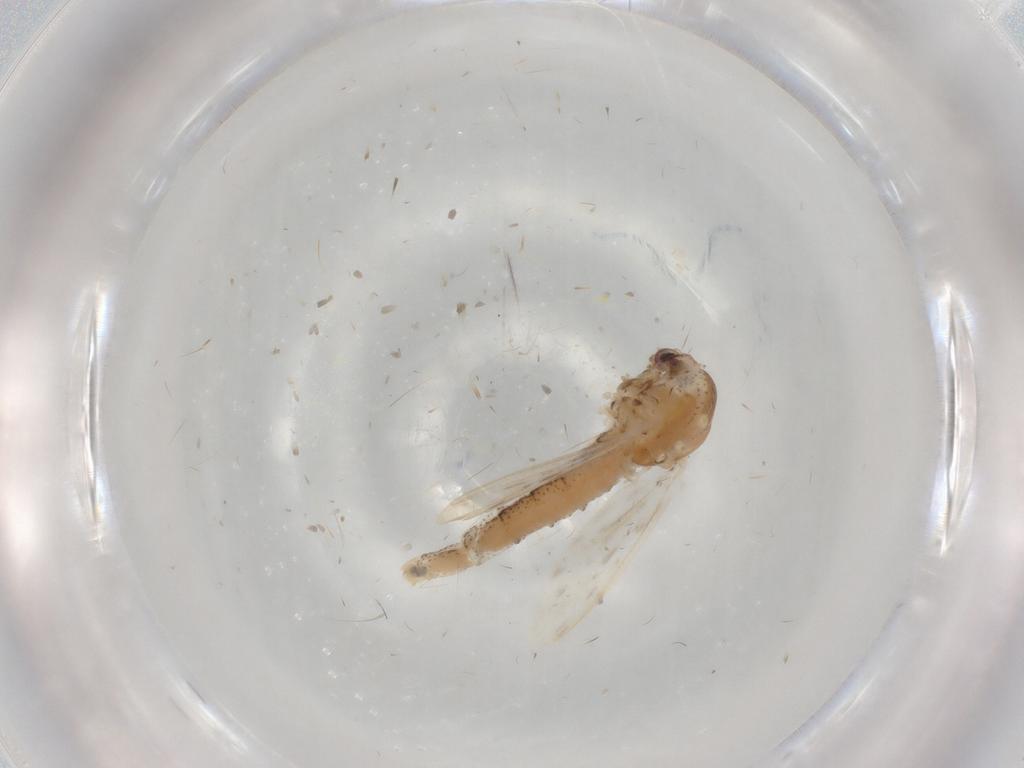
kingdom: Animalia
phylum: Arthropoda
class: Insecta
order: Diptera
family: Chaoboridae
